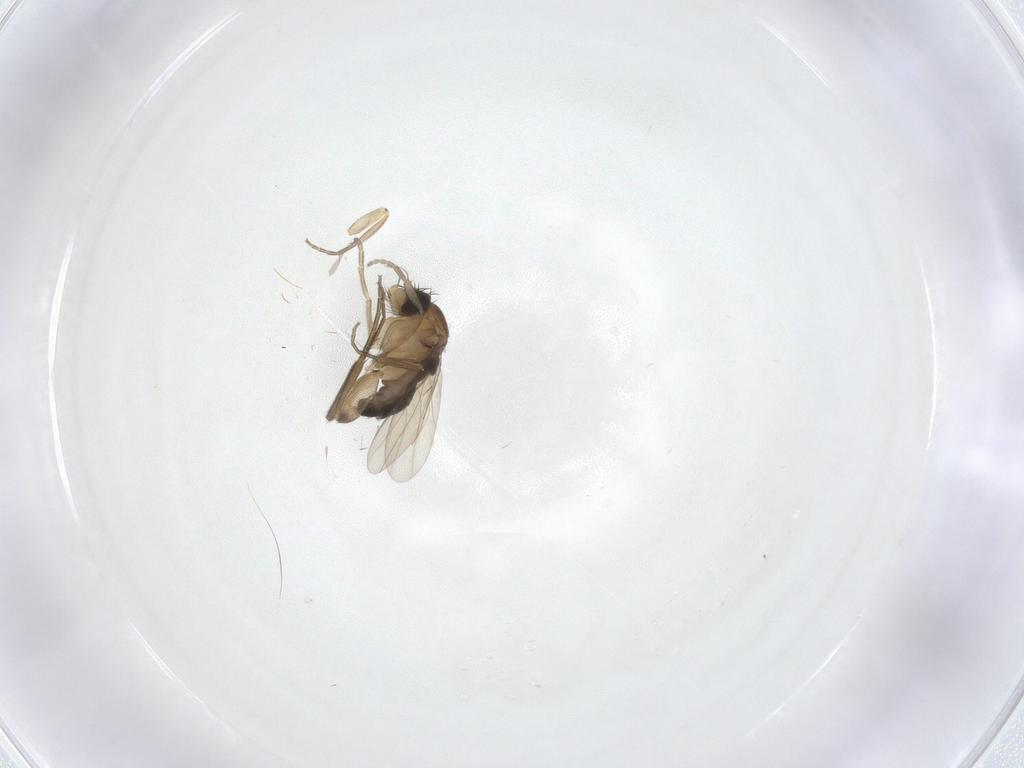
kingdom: Animalia
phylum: Arthropoda
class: Insecta
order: Diptera
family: Phoridae
